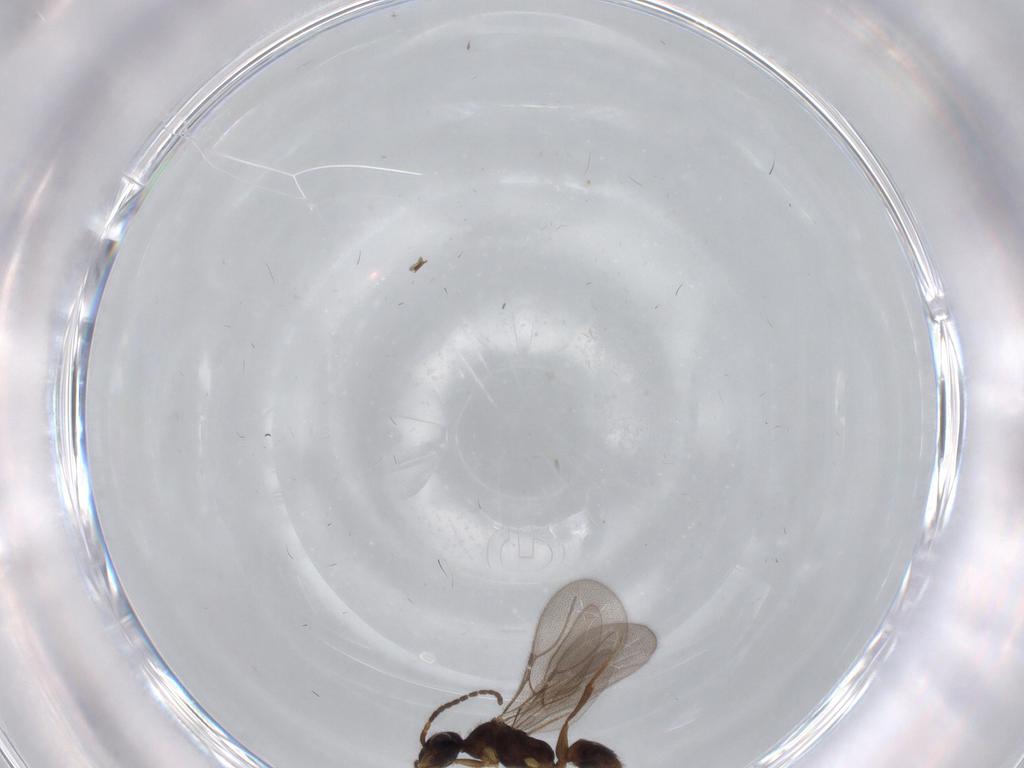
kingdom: Animalia
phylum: Arthropoda
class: Insecta
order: Hymenoptera
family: Bethylidae
